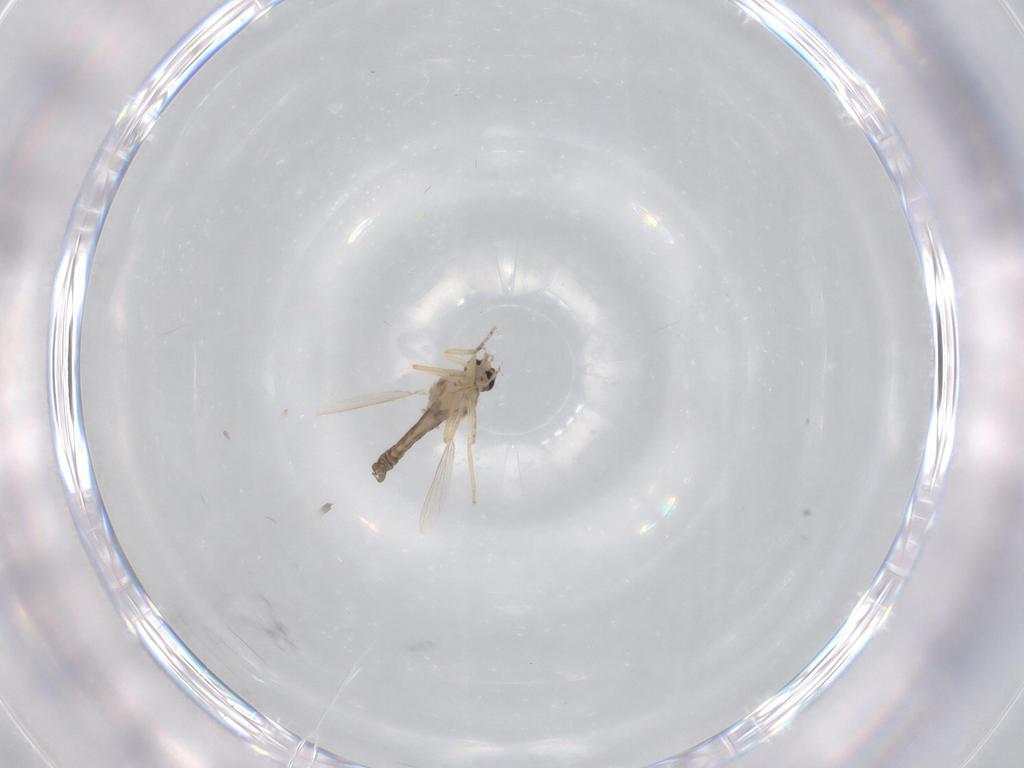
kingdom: Animalia
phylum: Arthropoda
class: Insecta
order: Diptera
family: Ceratopogonidae
